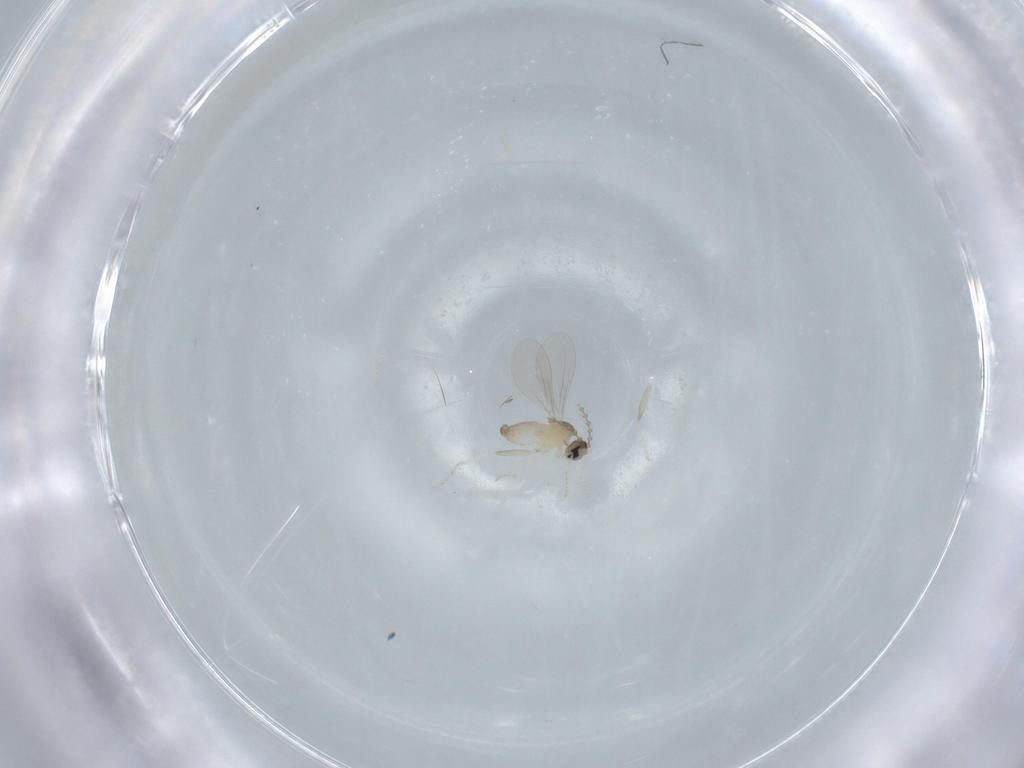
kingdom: Animalia
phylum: Arthropoda
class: Insecta
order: Diptera
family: Cecidomyiidae
